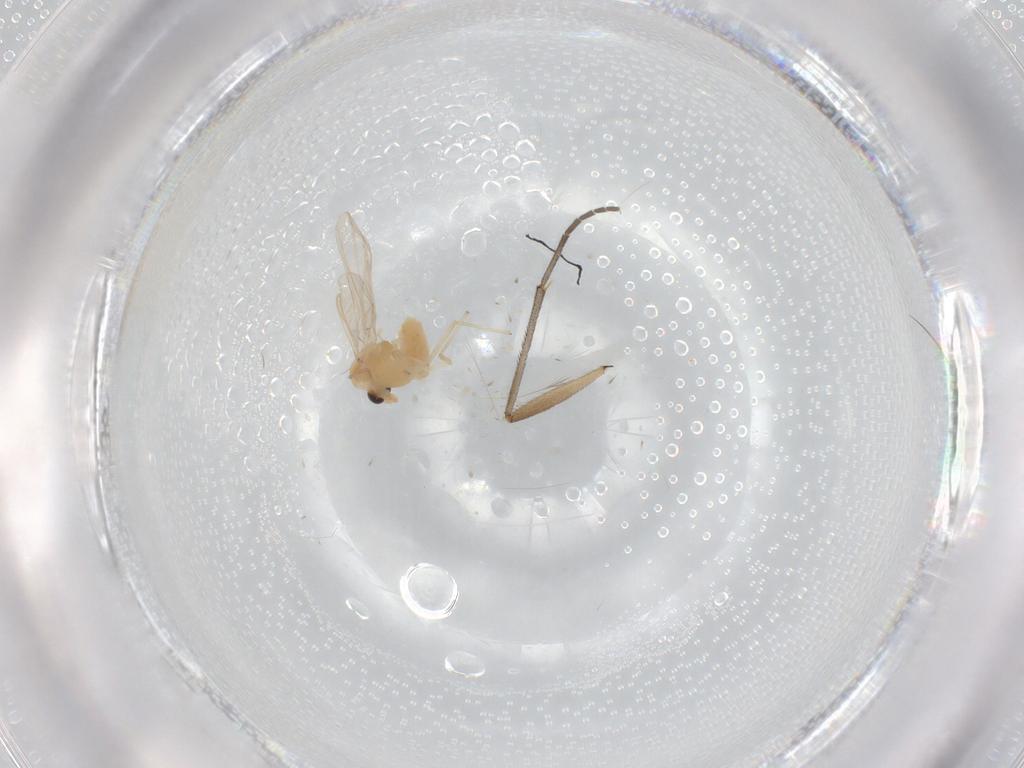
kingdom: Animalia
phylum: Arthropoda
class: Insecta
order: Diptera
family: Chironomidae
